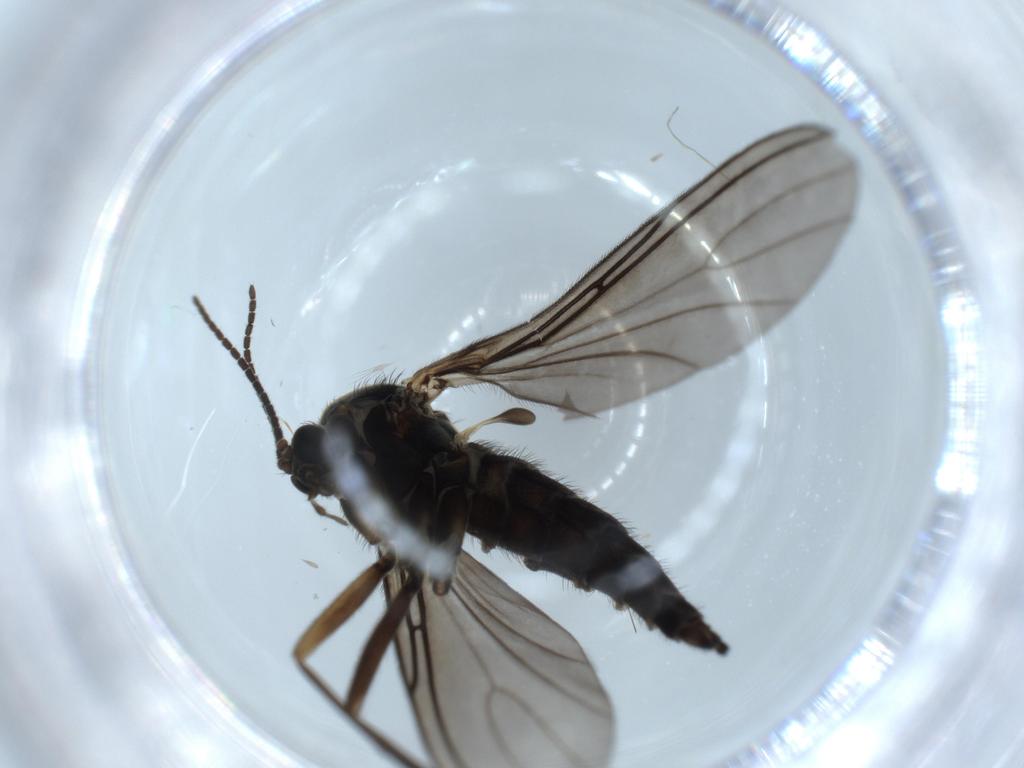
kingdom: Animalia
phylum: Arthropoda
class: Insecta
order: Diptera
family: Sciaridae
